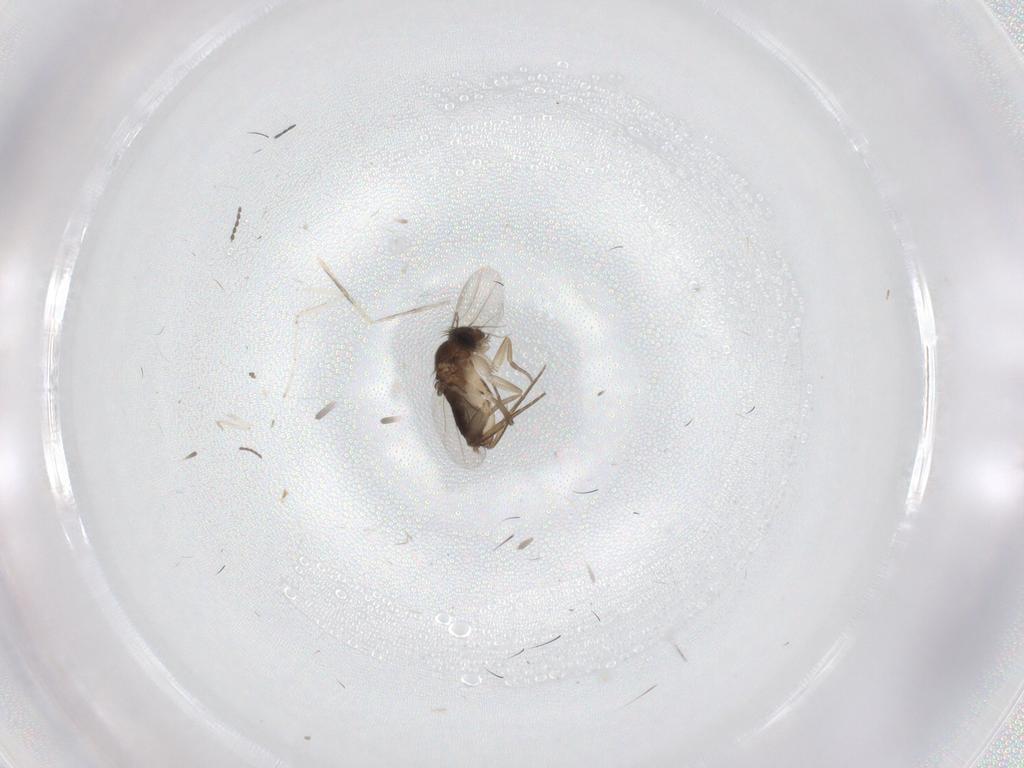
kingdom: Animalia
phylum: Arthropoda
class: Insecta
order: Diptera
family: Cecidomyiidae
